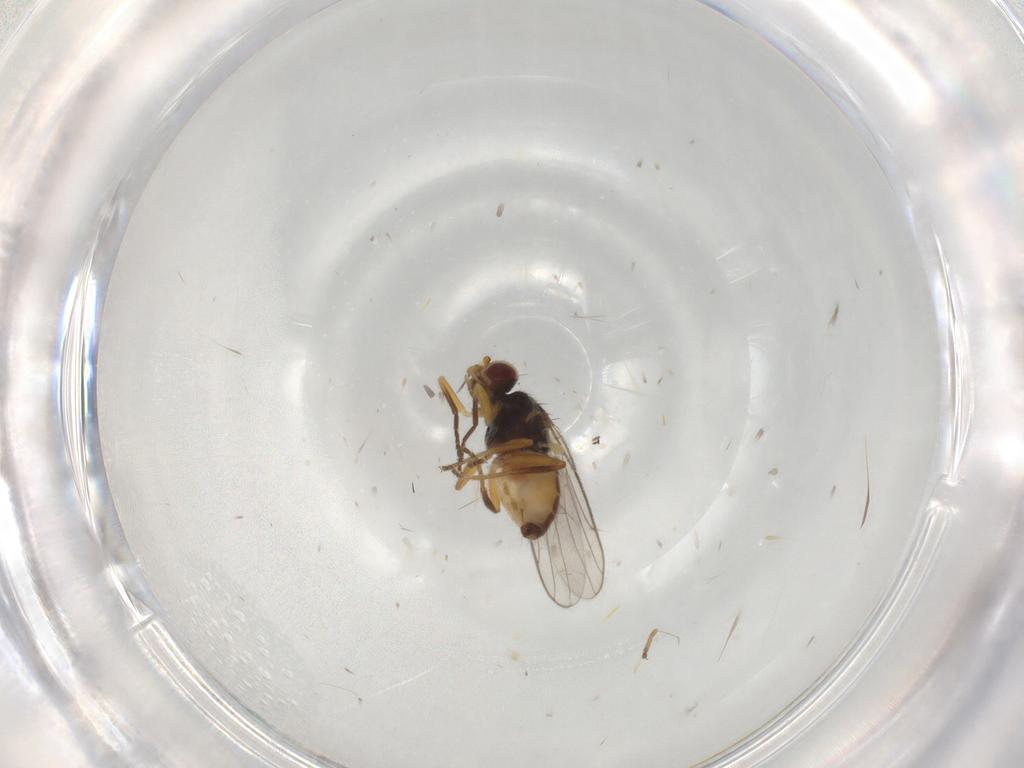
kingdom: Animalia
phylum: Arthropoda
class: Insecta
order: Diptera
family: Chloropidae
